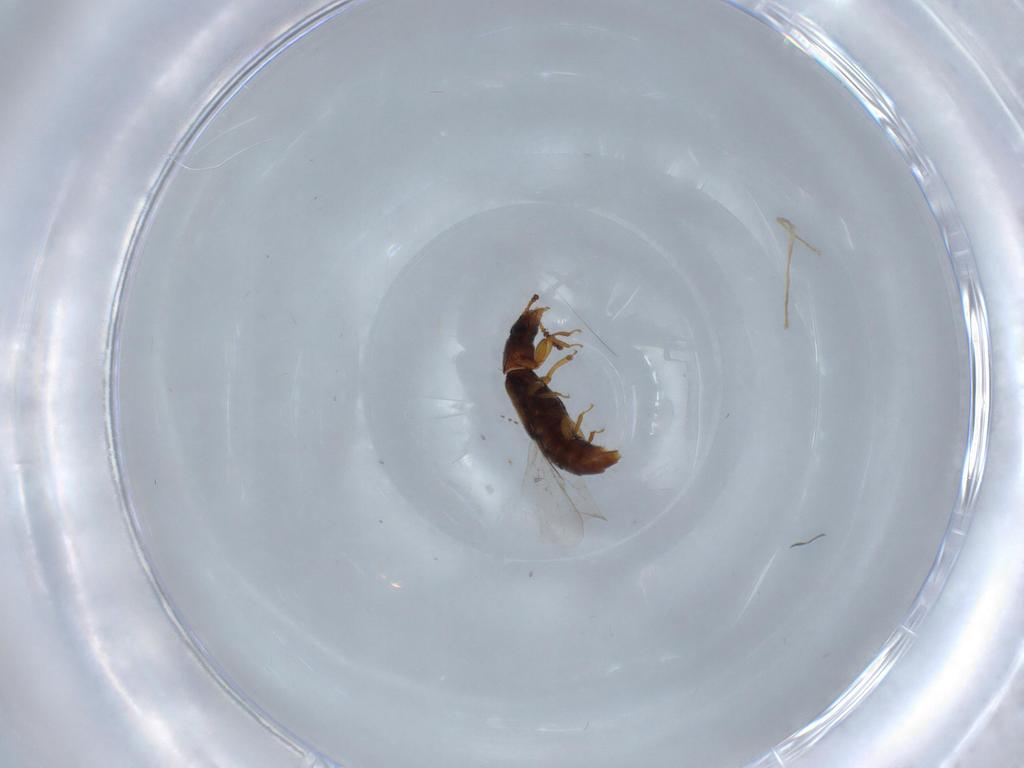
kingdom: Animalia
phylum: Arthropoda
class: Insecta
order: Coleoptera
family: Staphylinidae
